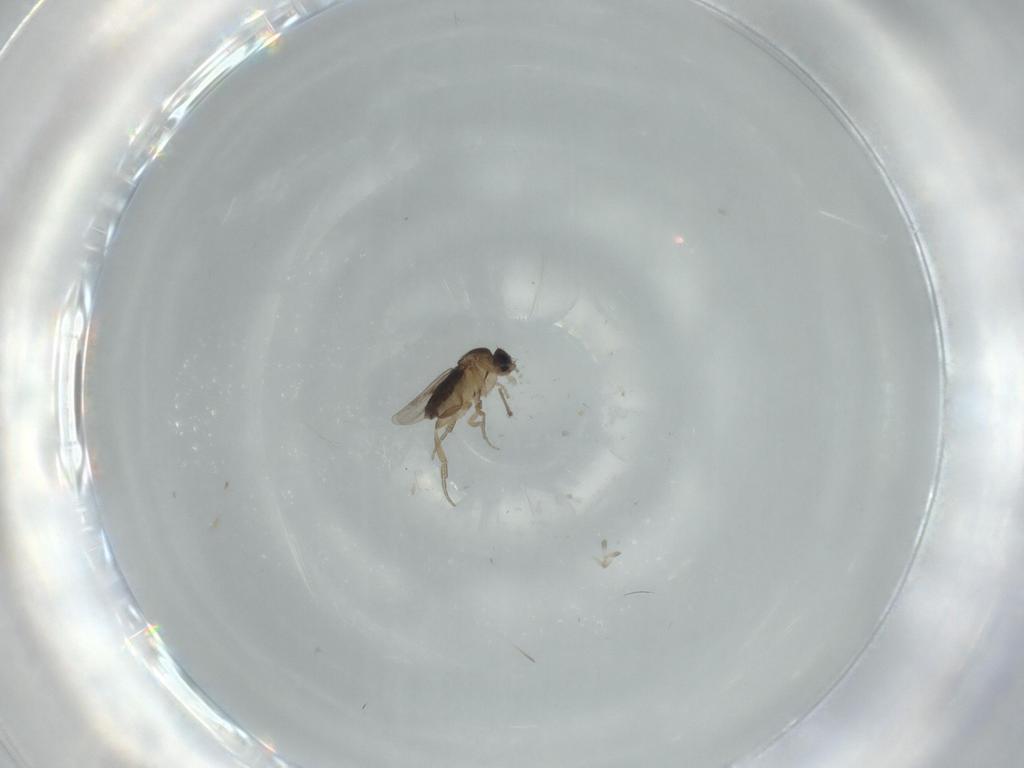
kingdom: Animalia
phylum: Arthropoda
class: Insecta
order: Diptera
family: Phoridae
